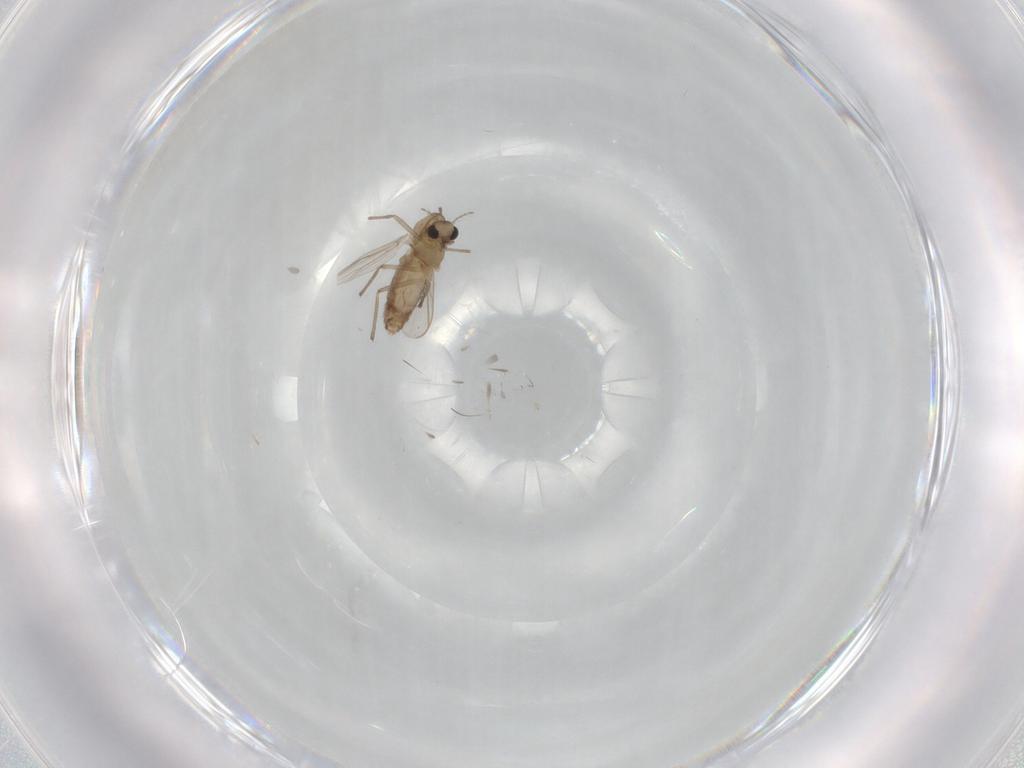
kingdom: Animalia
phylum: Arthropoda
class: Insecta
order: Diptera
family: Chironomidae
